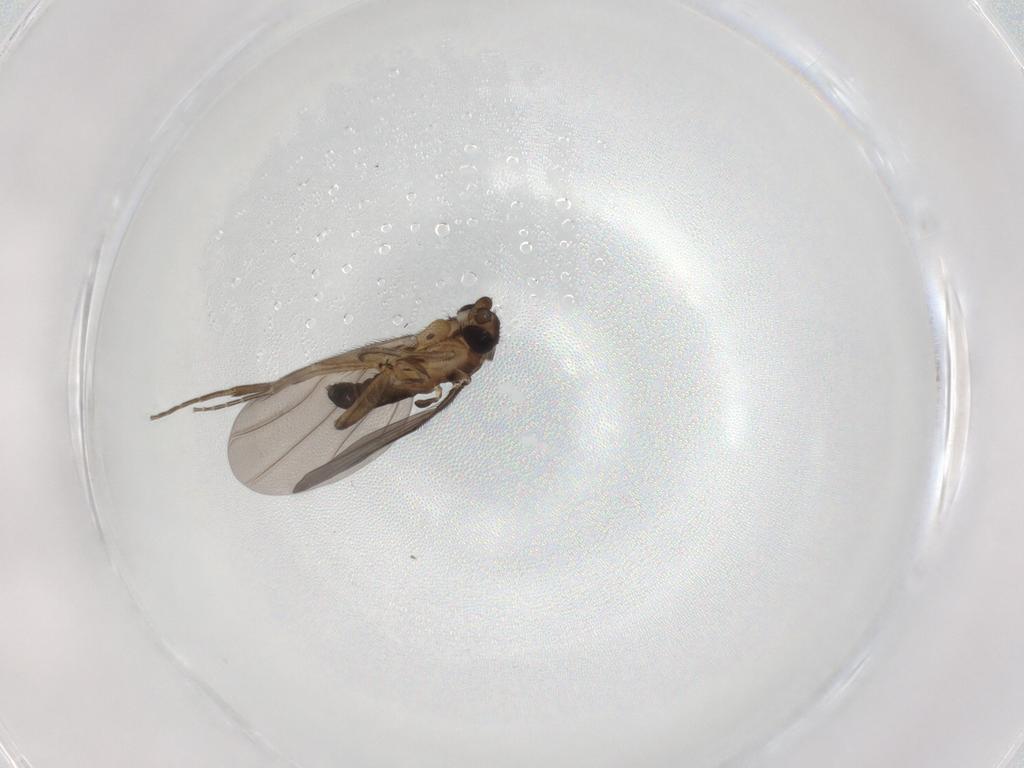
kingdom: Animalia
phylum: Arthropoda
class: Insecta
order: Diptera
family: Phoridae
